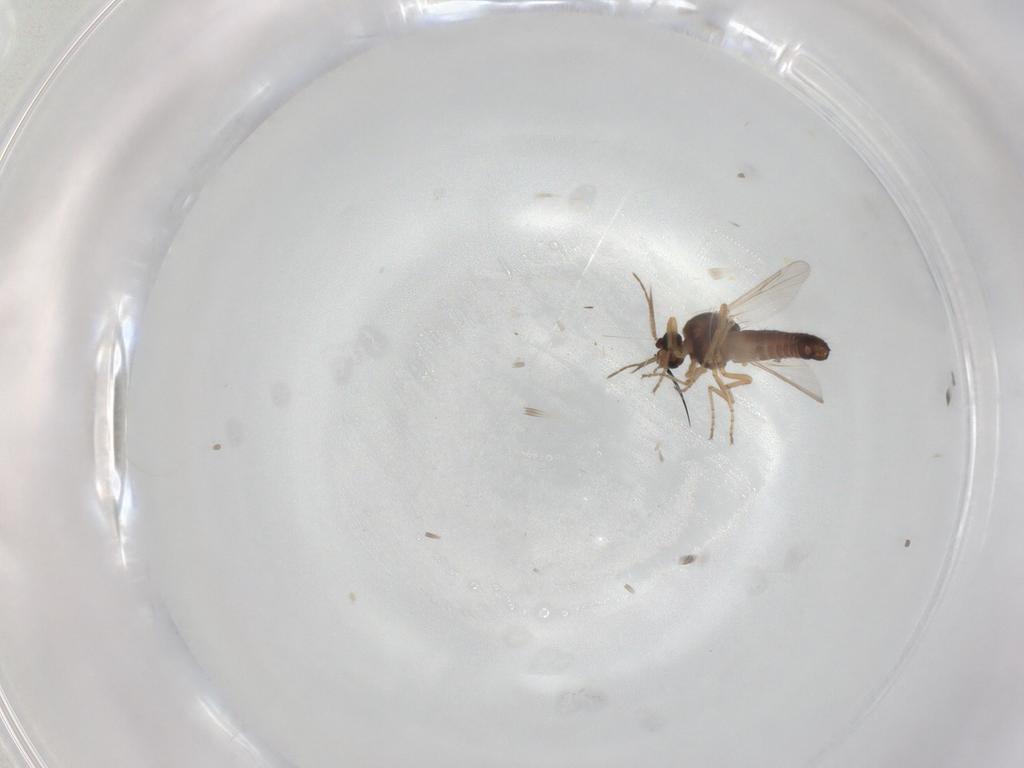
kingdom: Animalia
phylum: Arthropoda
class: Insecta
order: Diptera
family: Ceratopogonidae
